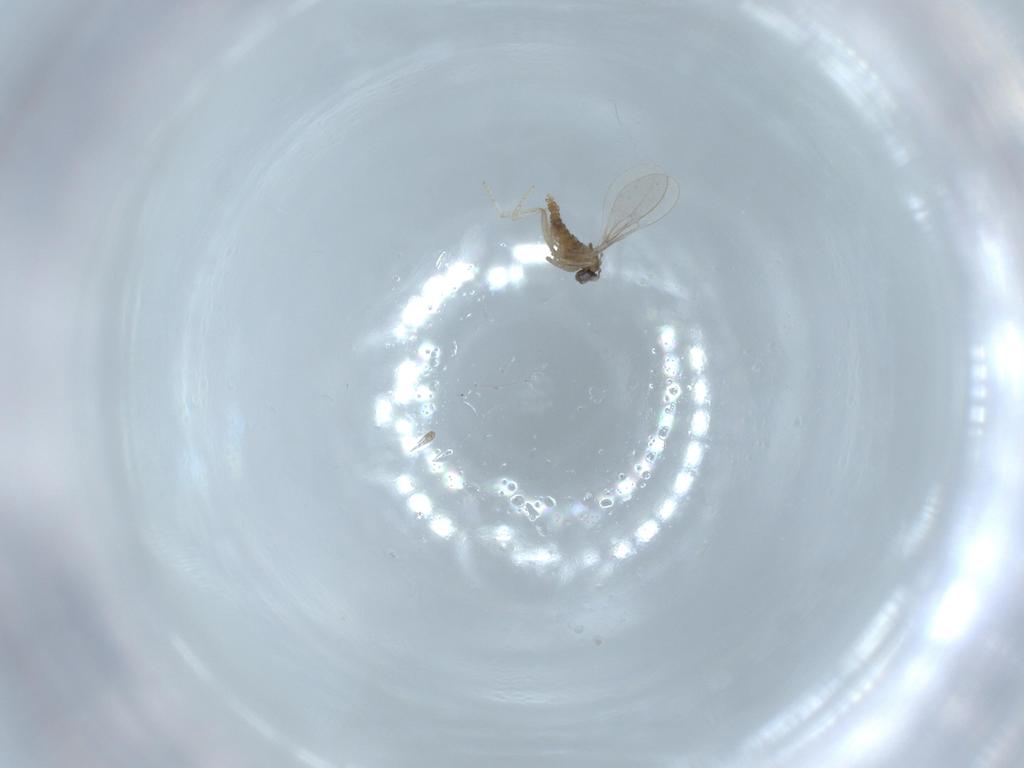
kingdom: Animalia
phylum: Arthropoda
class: Insecta
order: Diptera
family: Cecidomyiidae
